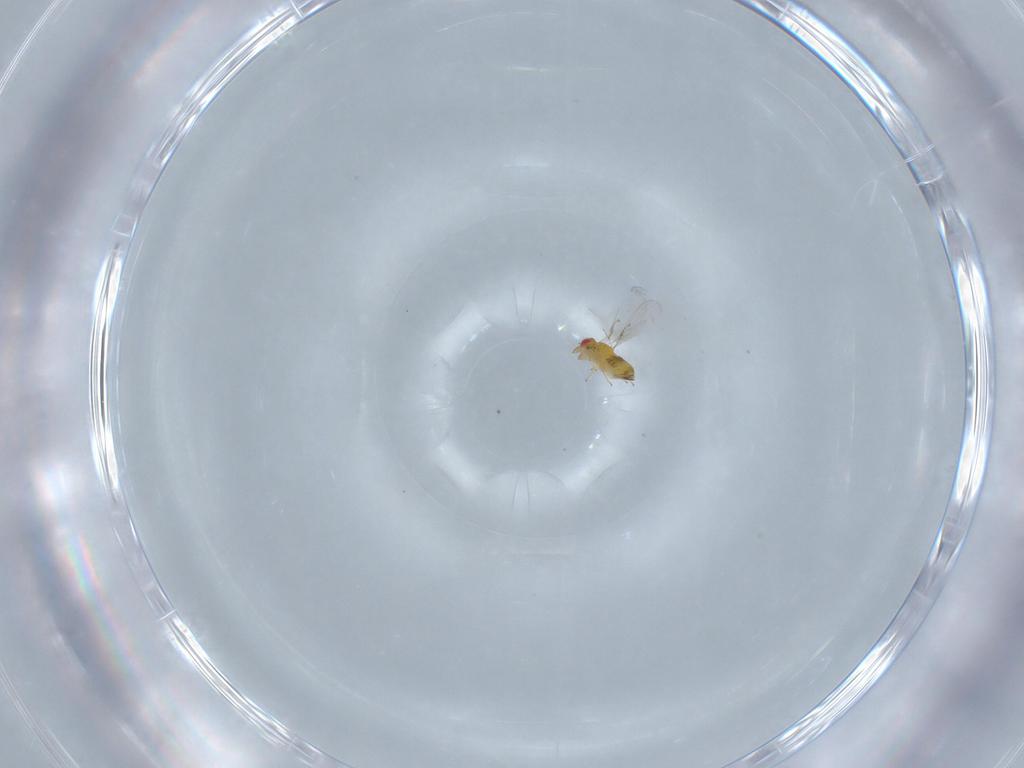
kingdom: Animalia
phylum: Arthropoda
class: Insecta
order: Hymenoptera
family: Trichogrammatidae
